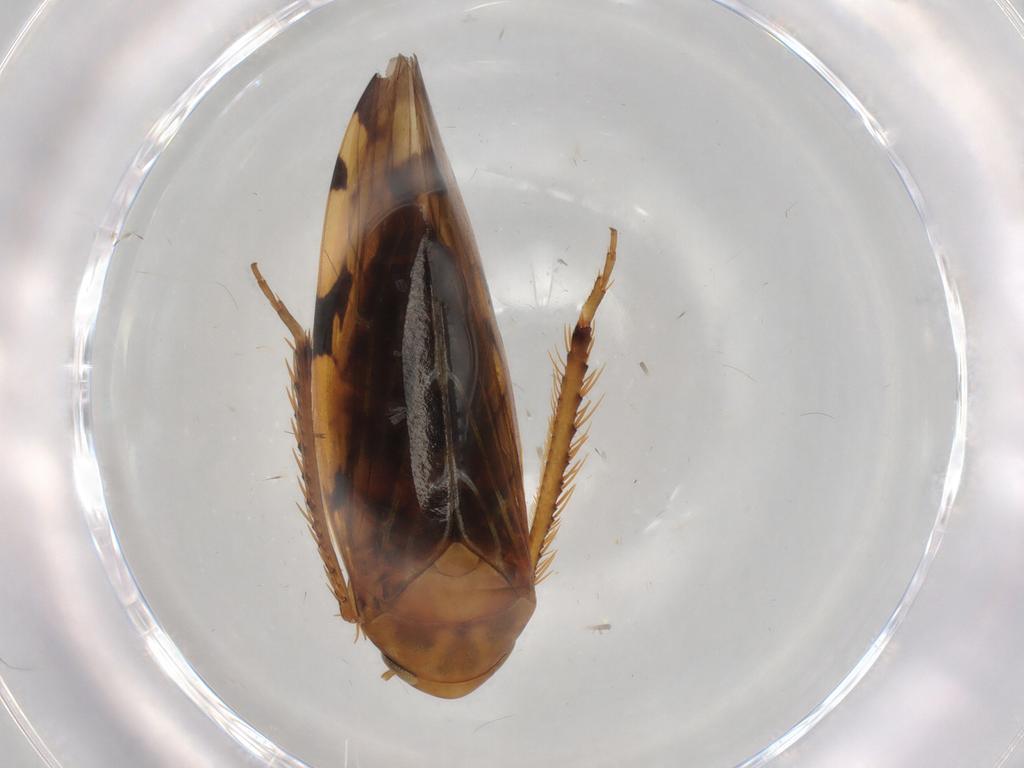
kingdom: Animalia
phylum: Arthropoda
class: Insecta
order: Hemiptera
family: Cicadellidae
